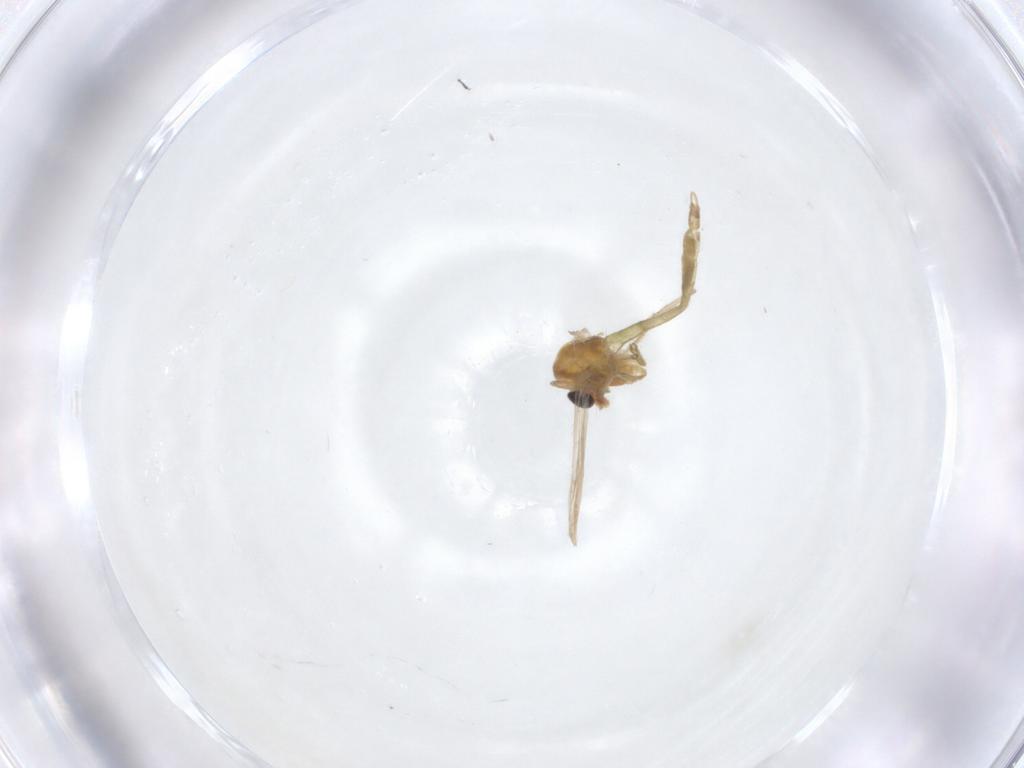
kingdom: Animalia
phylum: Arthropoda
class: Insecta
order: Diptera
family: Chironomidae
